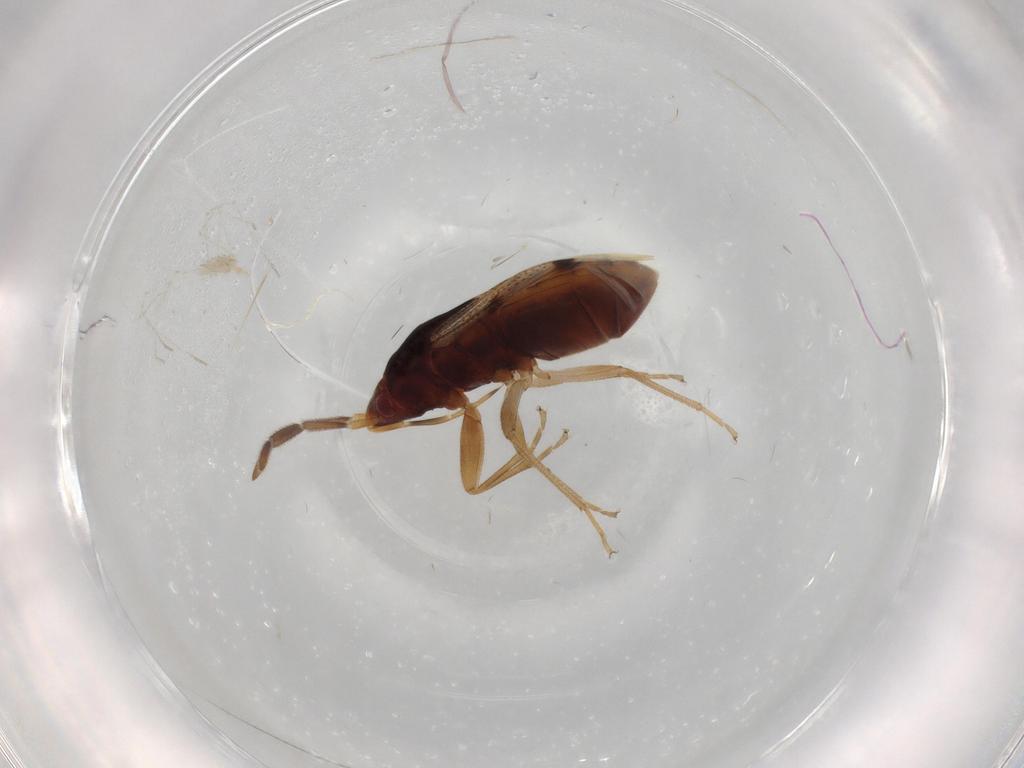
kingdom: Animalia
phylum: Arthropoda
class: Insecta
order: Hemiptera
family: Rhyparochromidae
